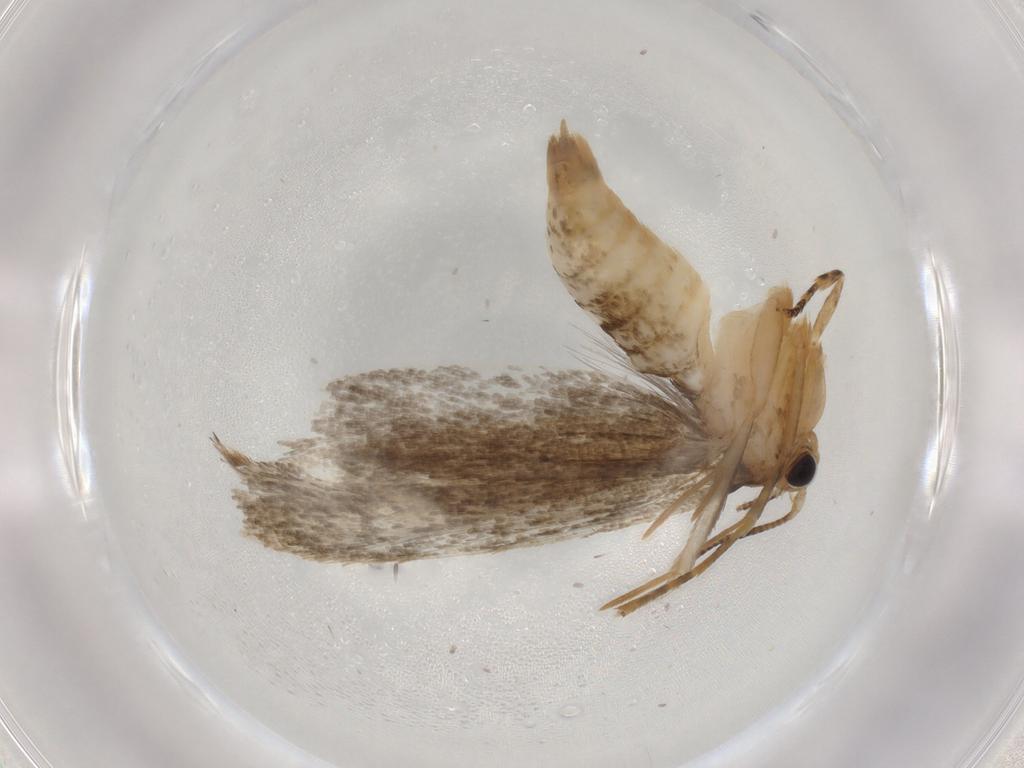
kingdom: Animalia
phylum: Arthropoda
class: Insecta
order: Lepidoptera
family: Tineidae
